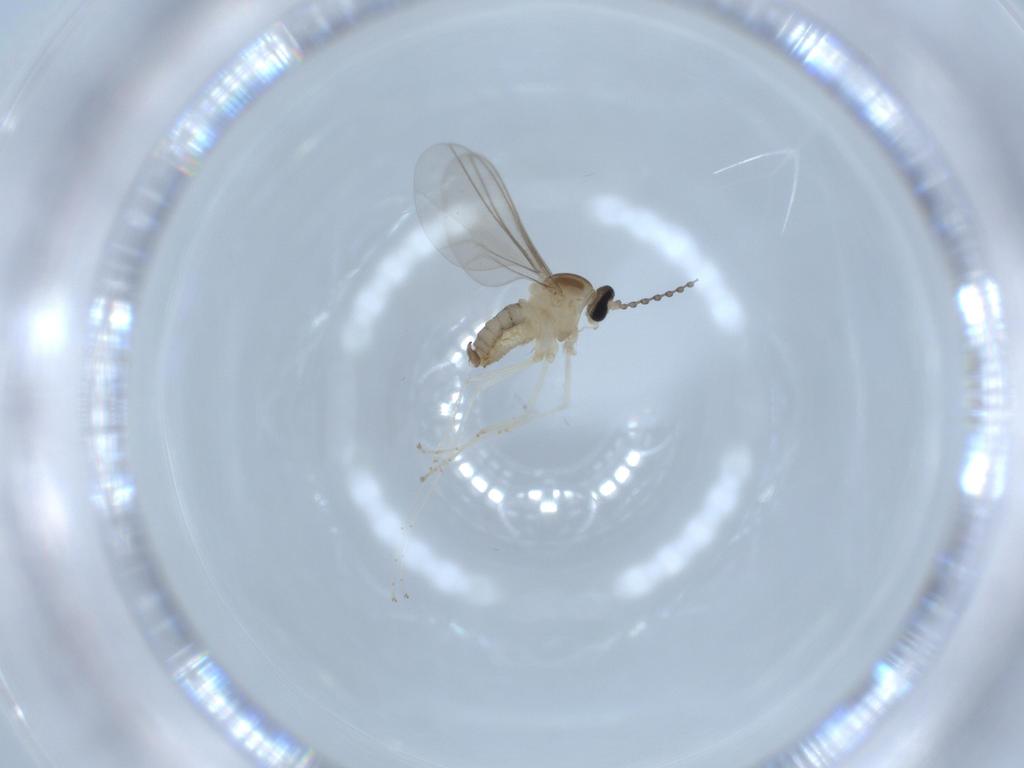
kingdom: Animalia
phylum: Arthropoda
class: Insecta
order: Diptera
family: Cecidomyiidae
